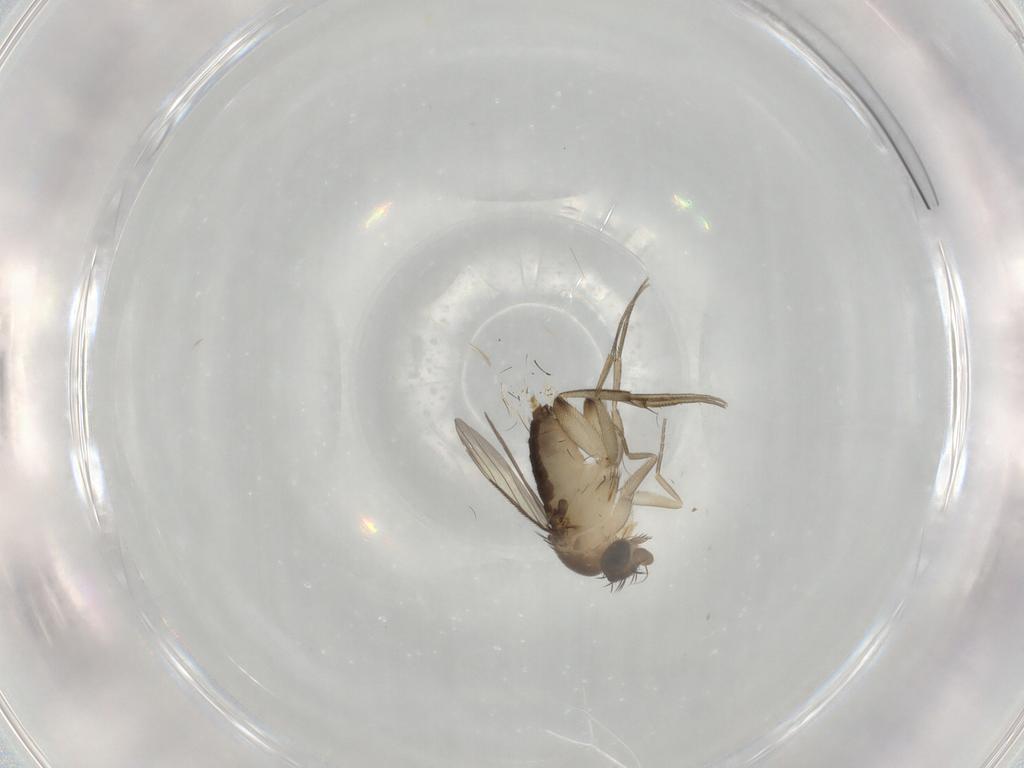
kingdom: Animalia
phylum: Arthropoda
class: Insecta
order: Diptera
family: Phoridae
